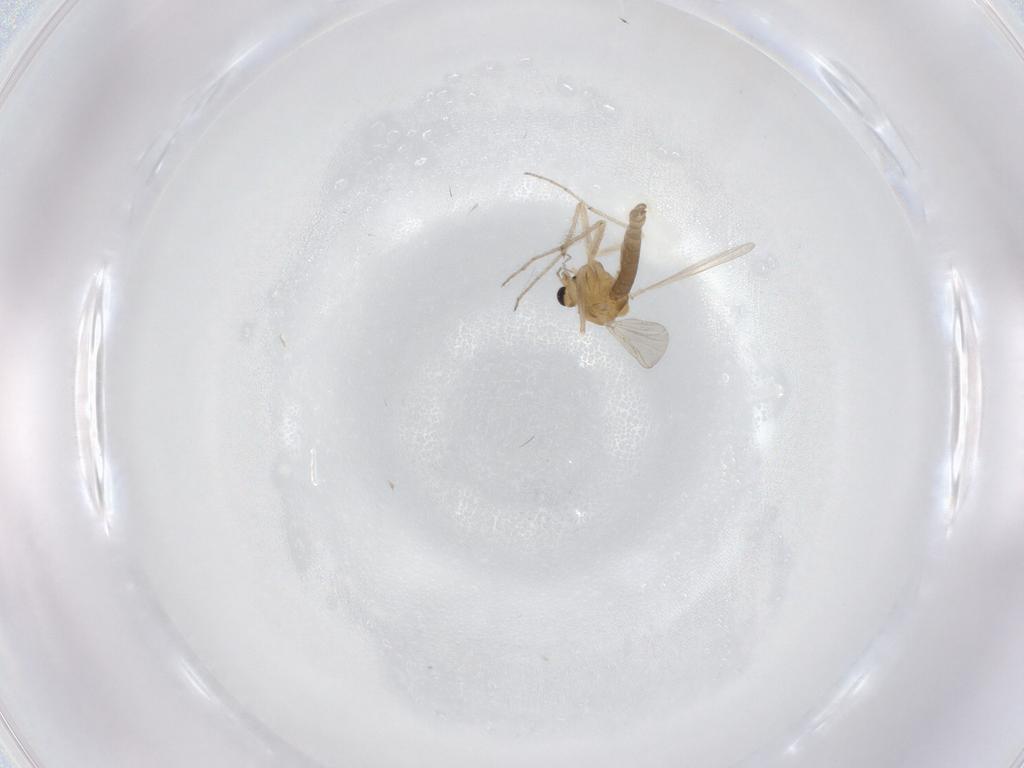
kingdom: Animalia
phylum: Arthropoda
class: Insecta
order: Diptera
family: Chironomidae
